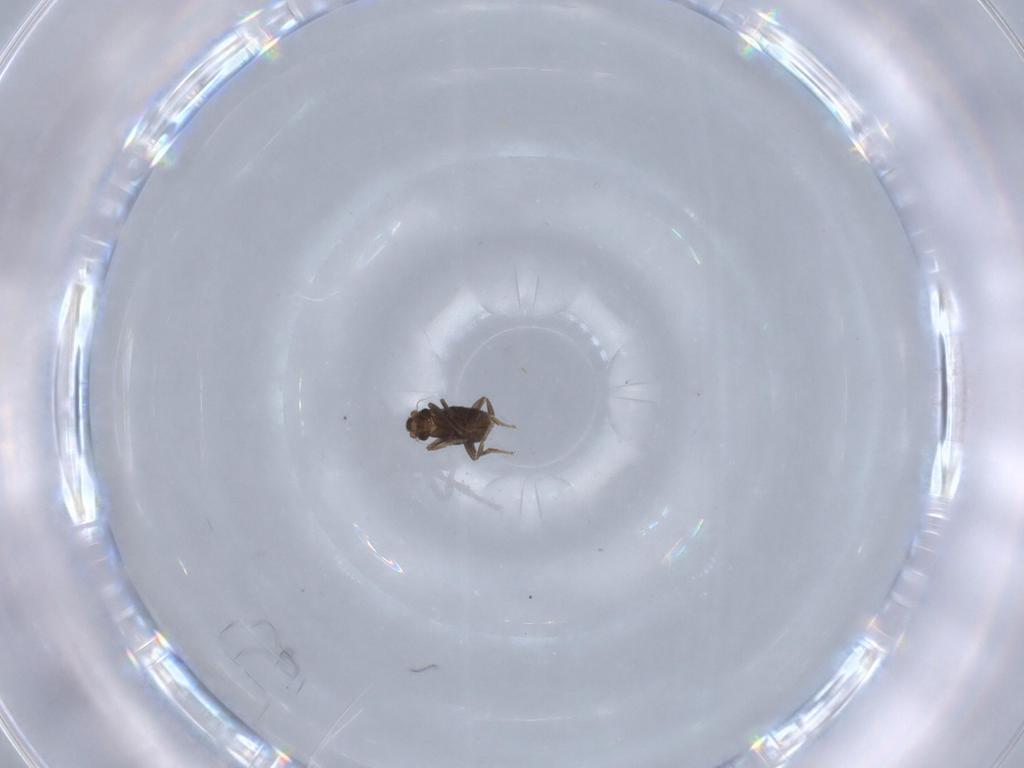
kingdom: Animalia
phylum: Arthropoda
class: Insecta
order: Diptera
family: Phoridae
